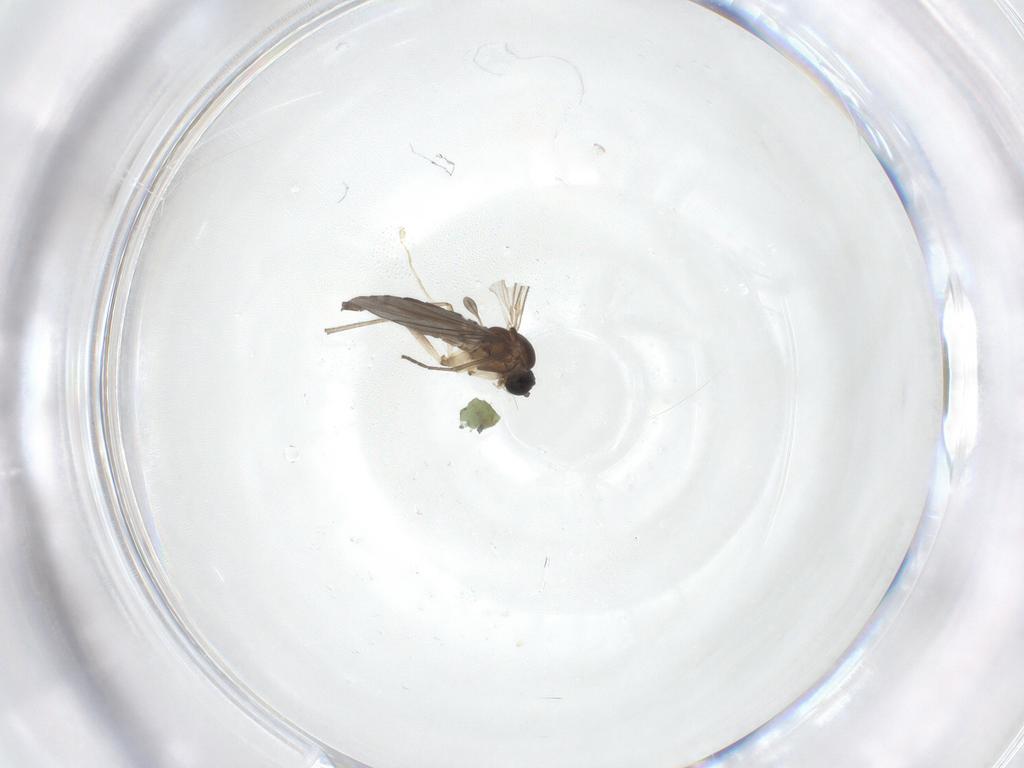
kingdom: Animalia
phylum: Arthropoda
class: Insecta
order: Diptera
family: Sciaridae
